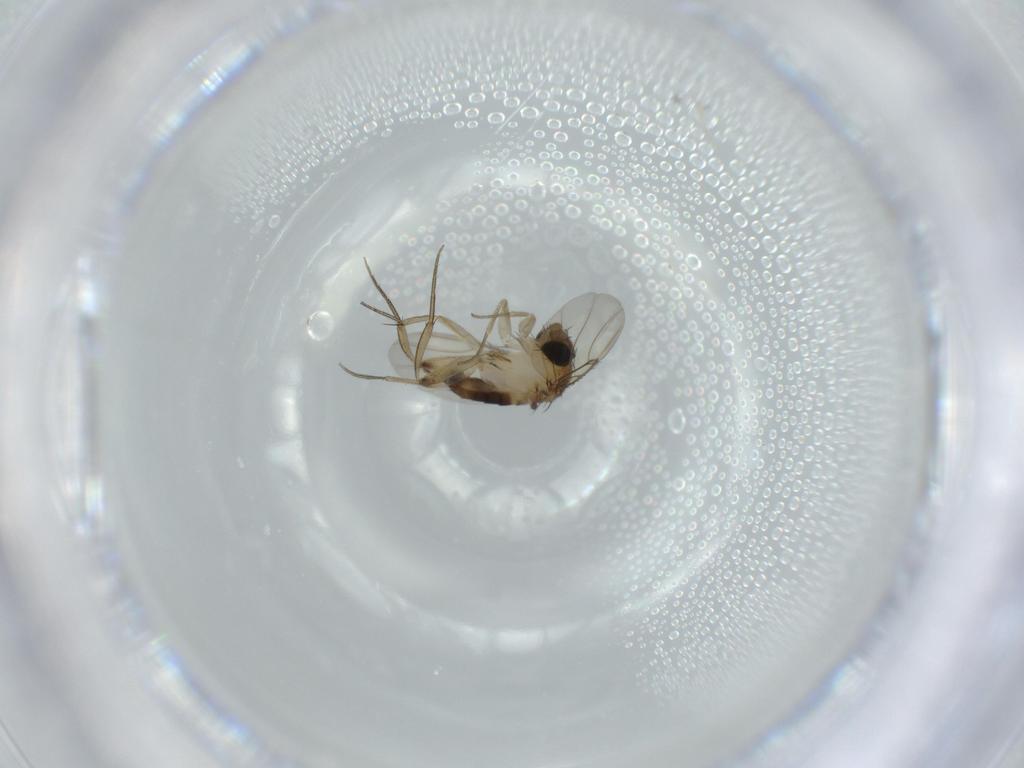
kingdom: Animalia
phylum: Arthropoda
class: Insecta
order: Diptera
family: Phoridae
